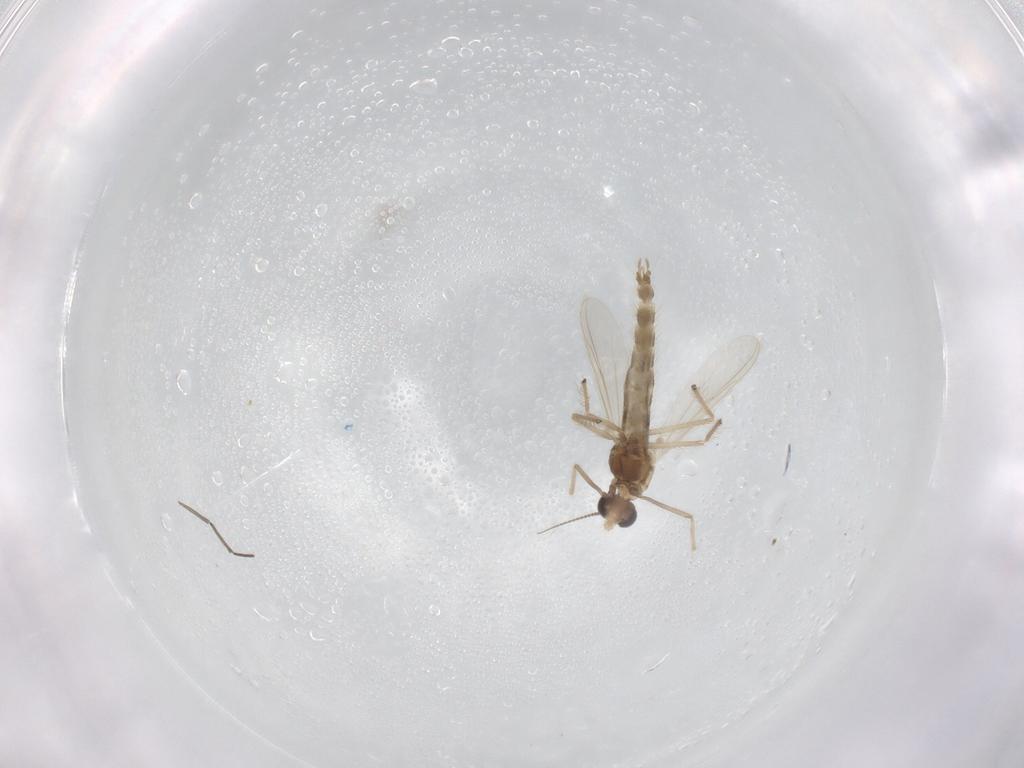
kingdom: Animalia
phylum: Arthropoda
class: Insecta
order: Diptera
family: Chironomidae
